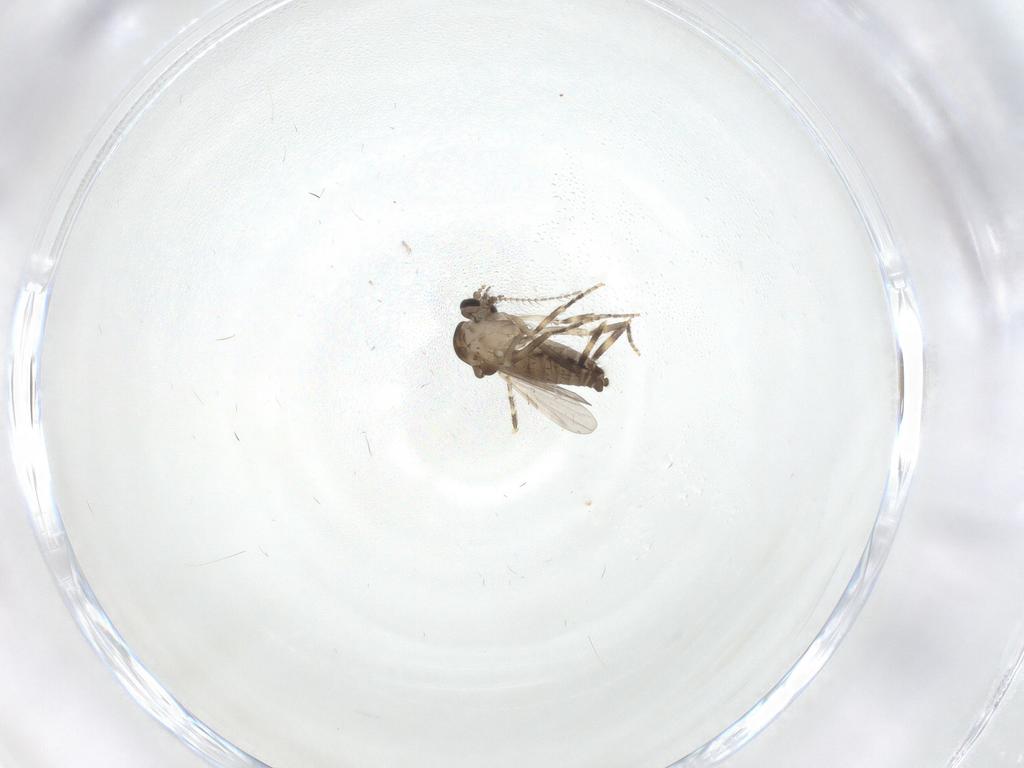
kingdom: Animalia
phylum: Arthropoda
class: Insecta
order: Diptera
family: Ceratopogonidae
